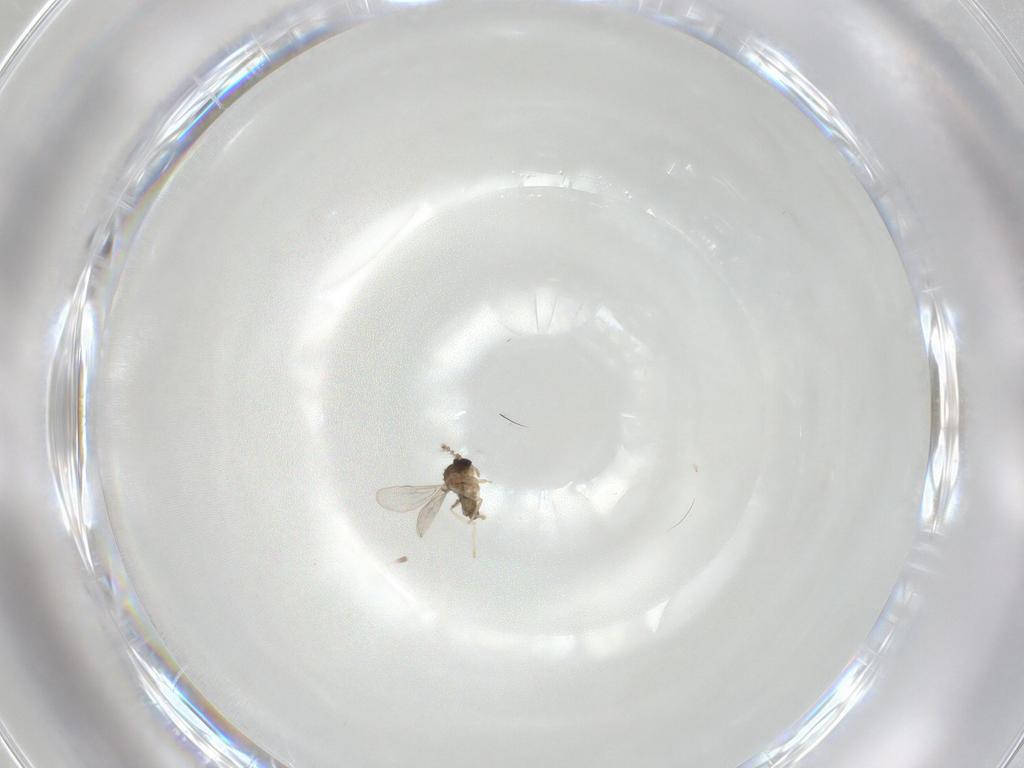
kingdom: Animalia
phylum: Arthropoda
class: Insecta
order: Diptera
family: Cecidomyiidae
